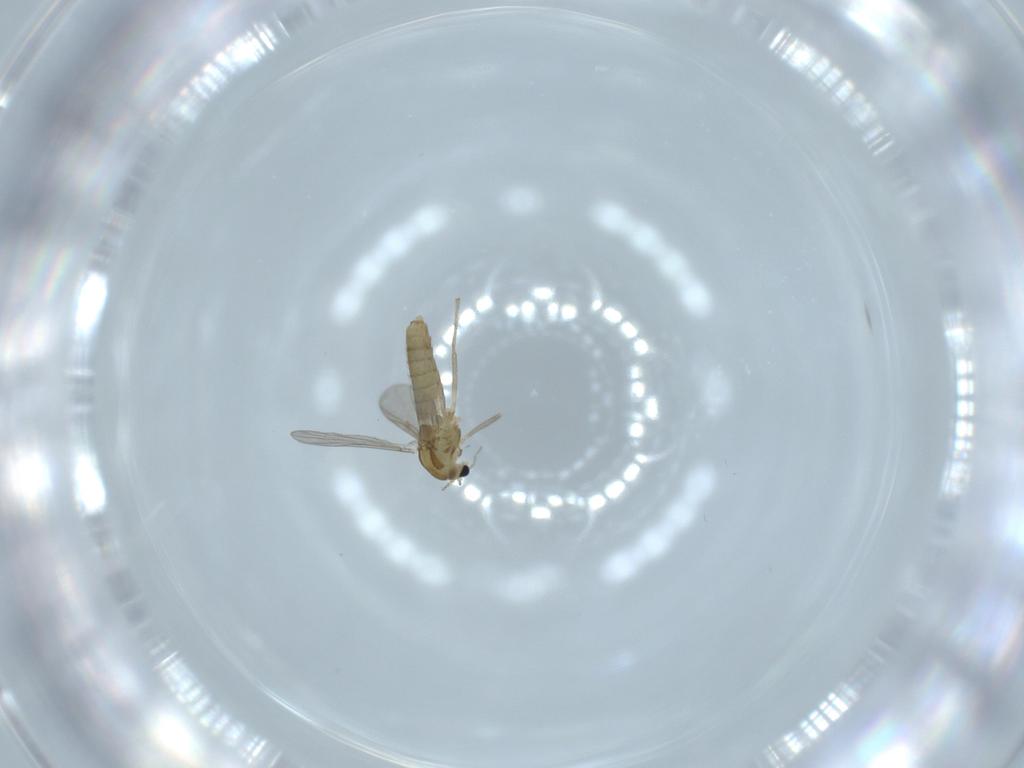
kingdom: Animalia
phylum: Arthropoda
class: Insecta
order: Diptera
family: Chironomidae
